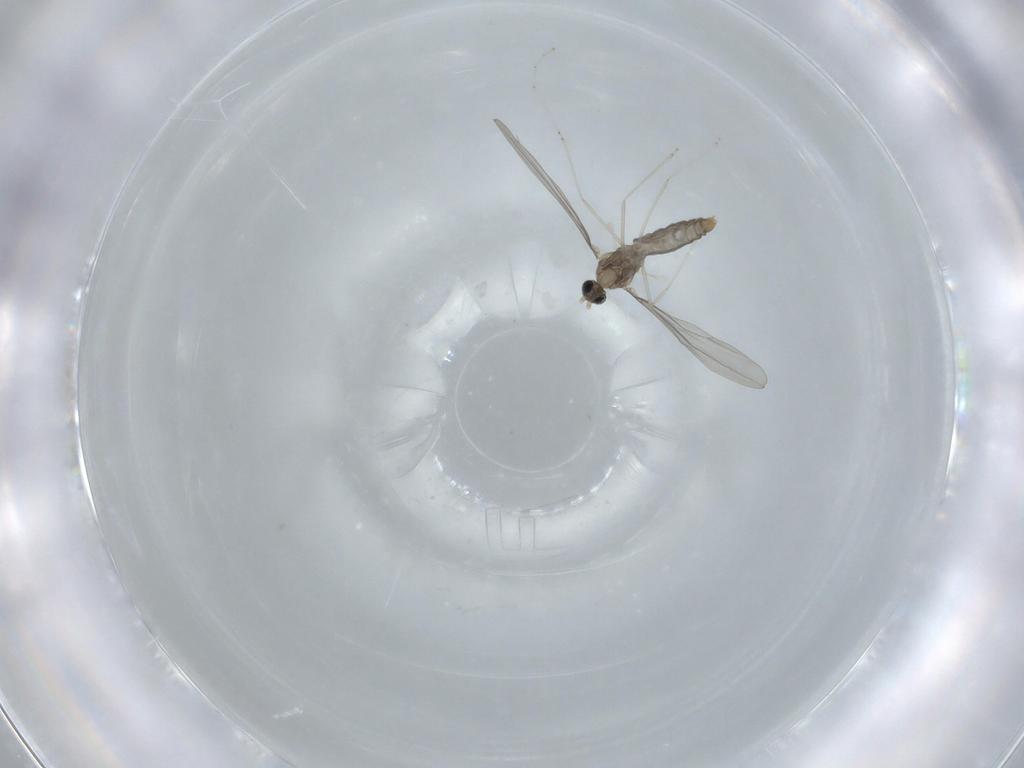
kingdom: Animalia
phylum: Arthropoda
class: Insecta
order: Diptera
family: Cecidomyiidae
